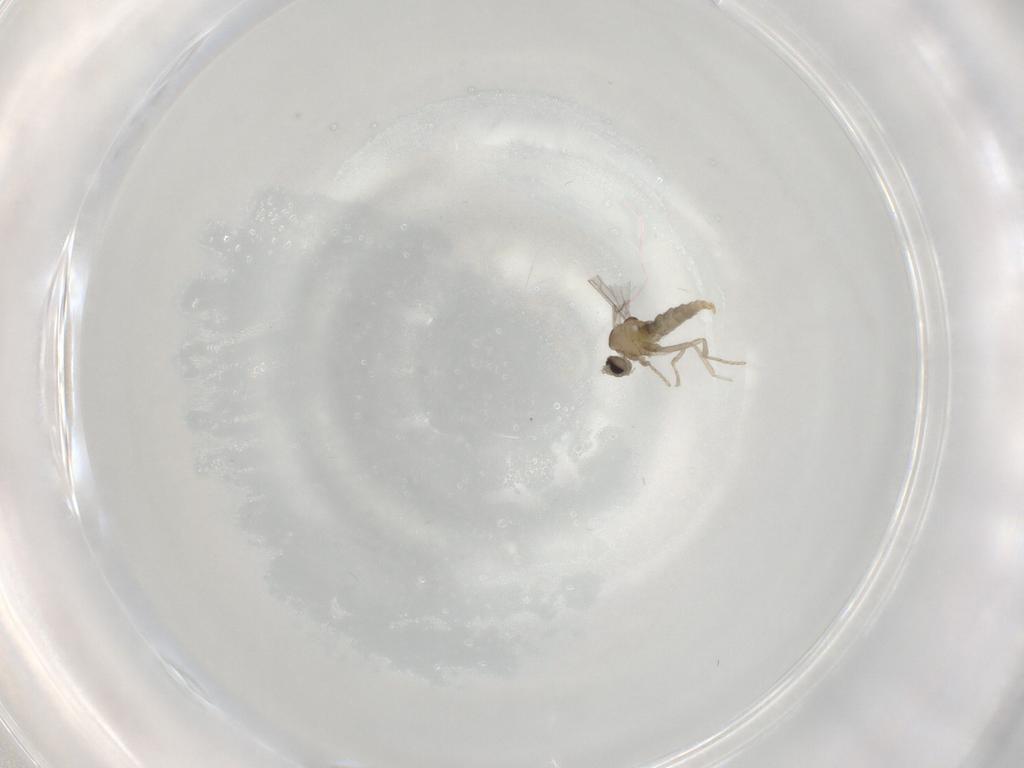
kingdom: Animalia
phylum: Arthropoda
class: Insecta
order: Diptera
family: Cecidomyiidae
